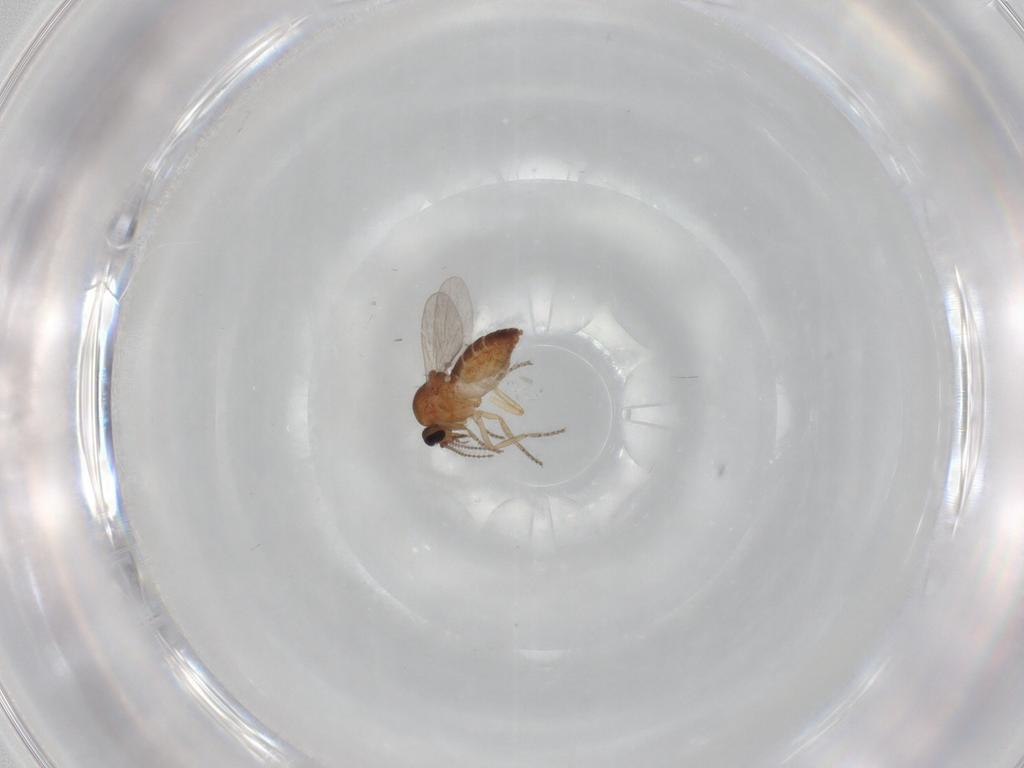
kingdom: Animalia
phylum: Arthropoda
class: Insecta
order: Diptera
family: Ceratopogonidae
